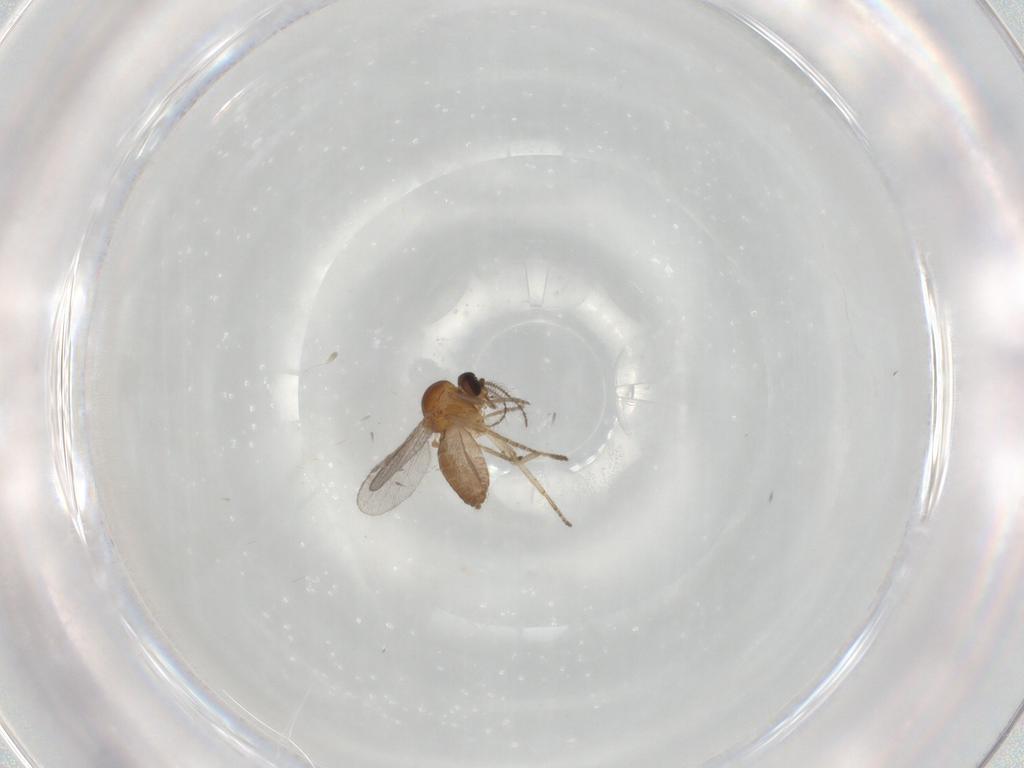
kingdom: Animalia
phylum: Arthropoda
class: Insecta
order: Diptera
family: Ceratopogonidae
